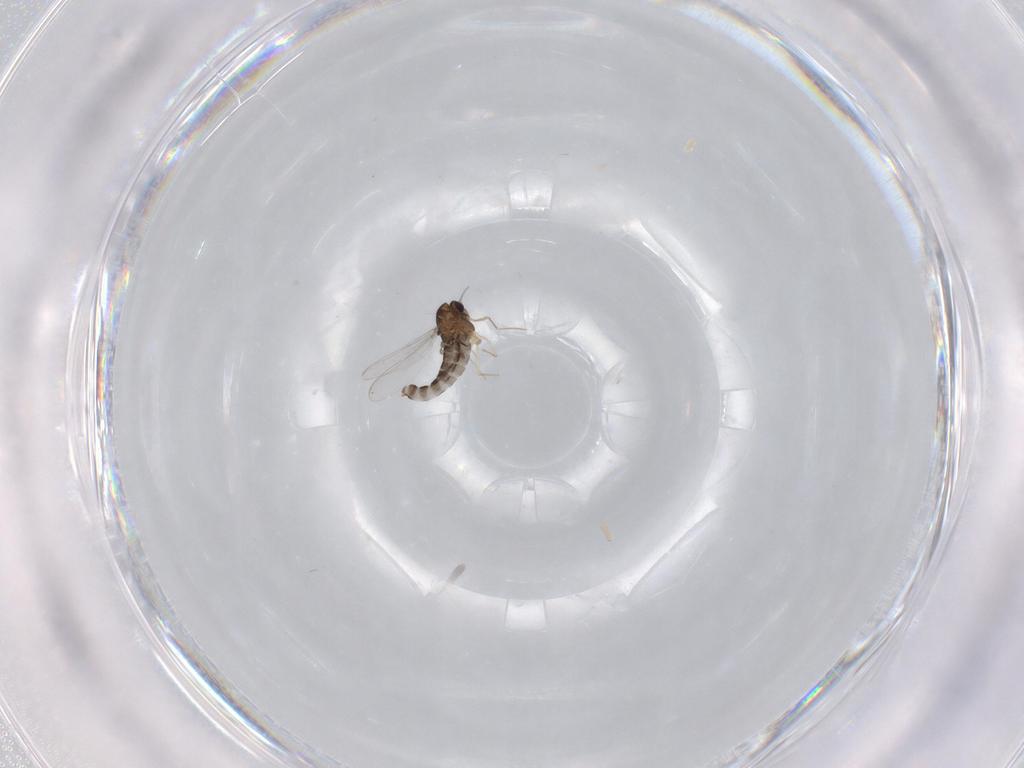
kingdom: Animalia
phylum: Arthropoda
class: Insecta
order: Diptera
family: Chironomidae
